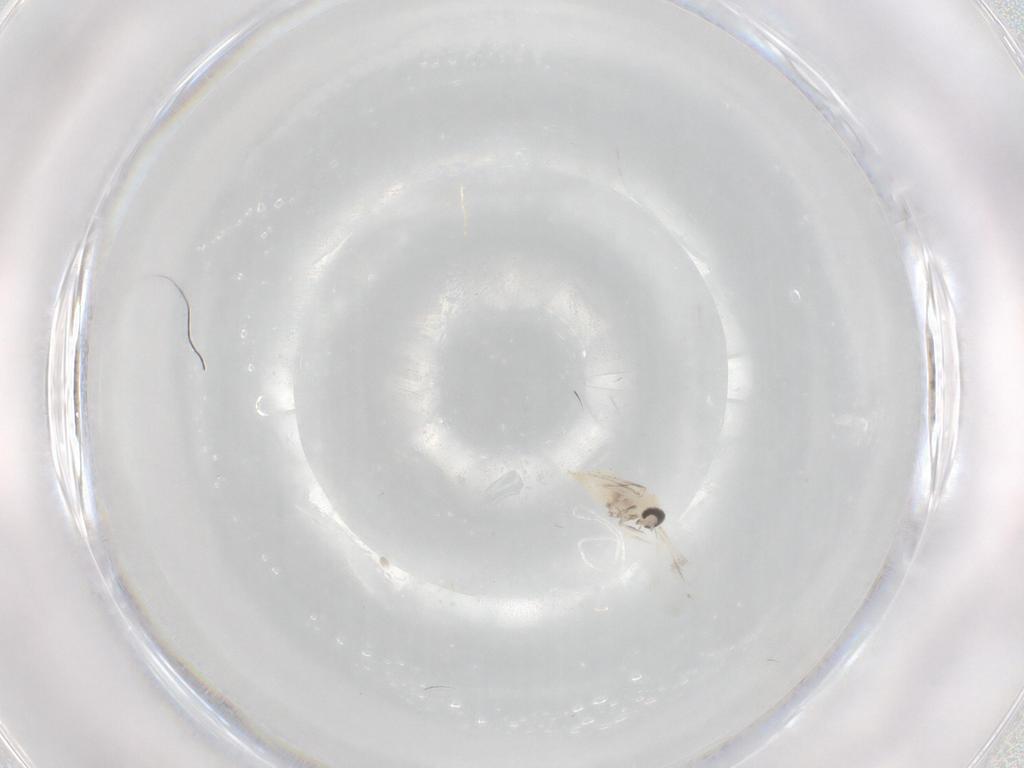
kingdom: Animalia
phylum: Arthropoda
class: Insecta
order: Diptera
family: Cecidomyiidae
